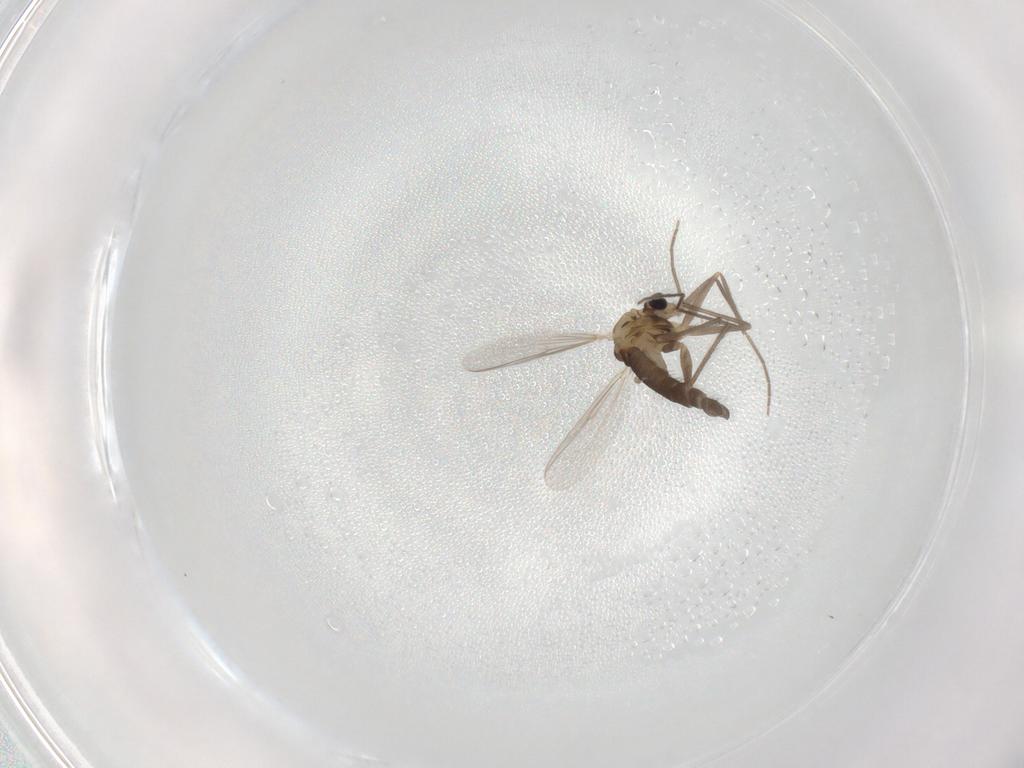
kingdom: Animalia
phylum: Arthropoda
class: Insecta
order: Diptera
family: Chironomidae
